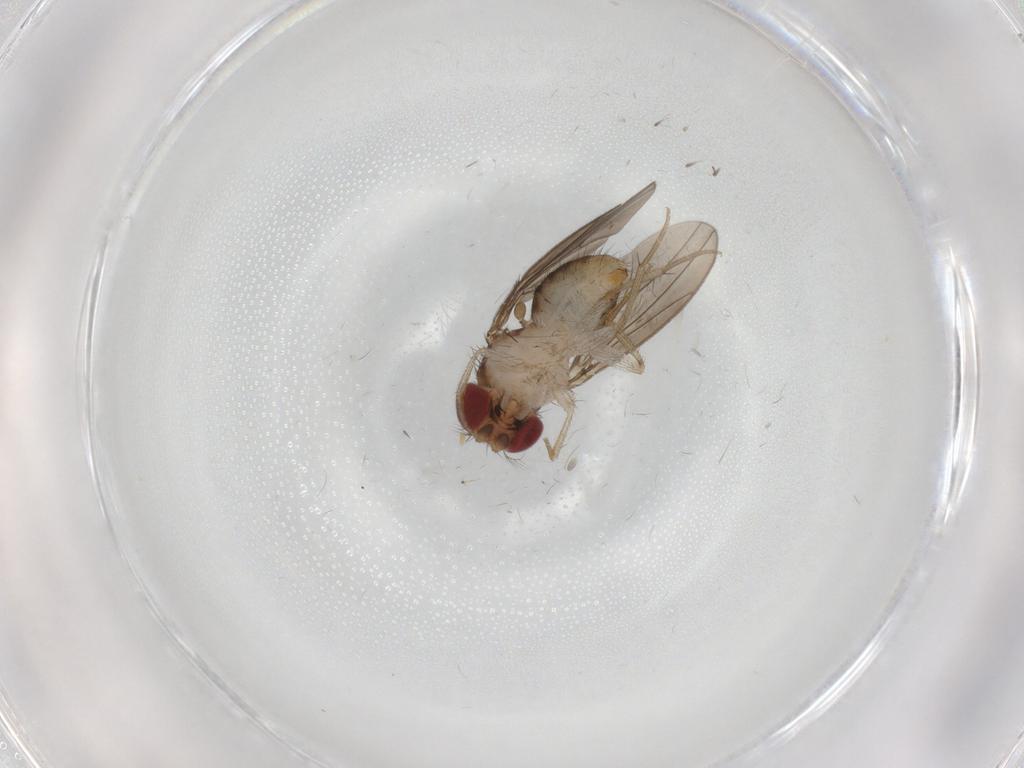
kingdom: Animalia
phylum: Arthropoda
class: Insecta
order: Diptera
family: Drosophilidae
